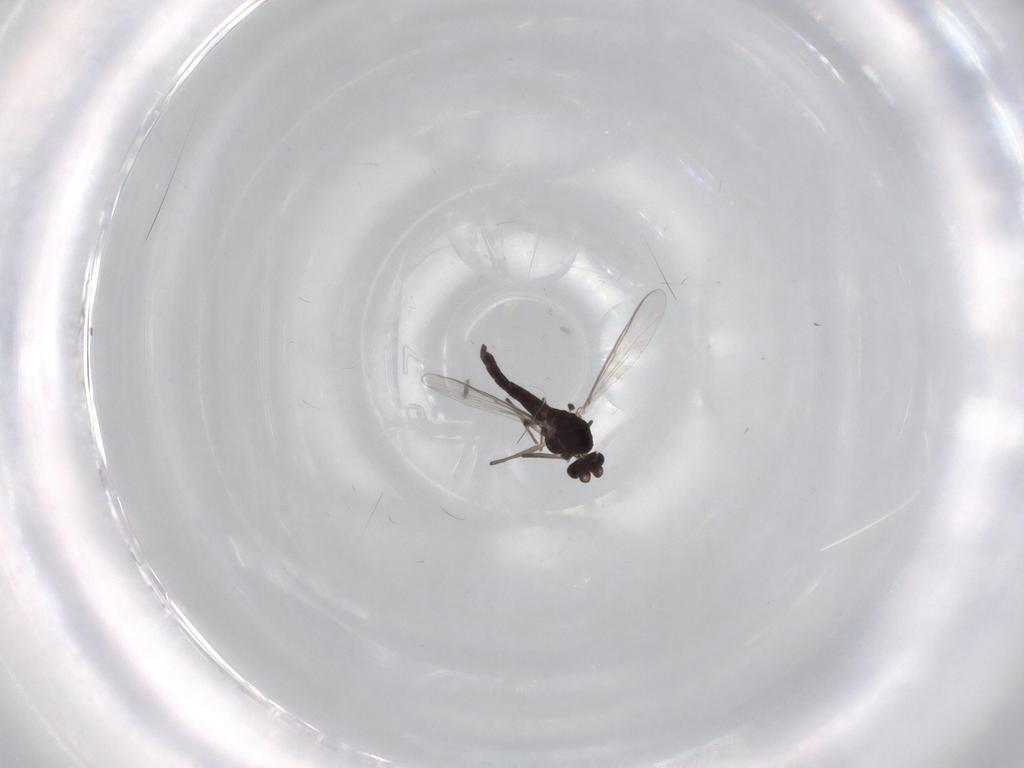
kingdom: Animalia
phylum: Arthropoda
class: Insecta
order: Diptera
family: Chironomidae
